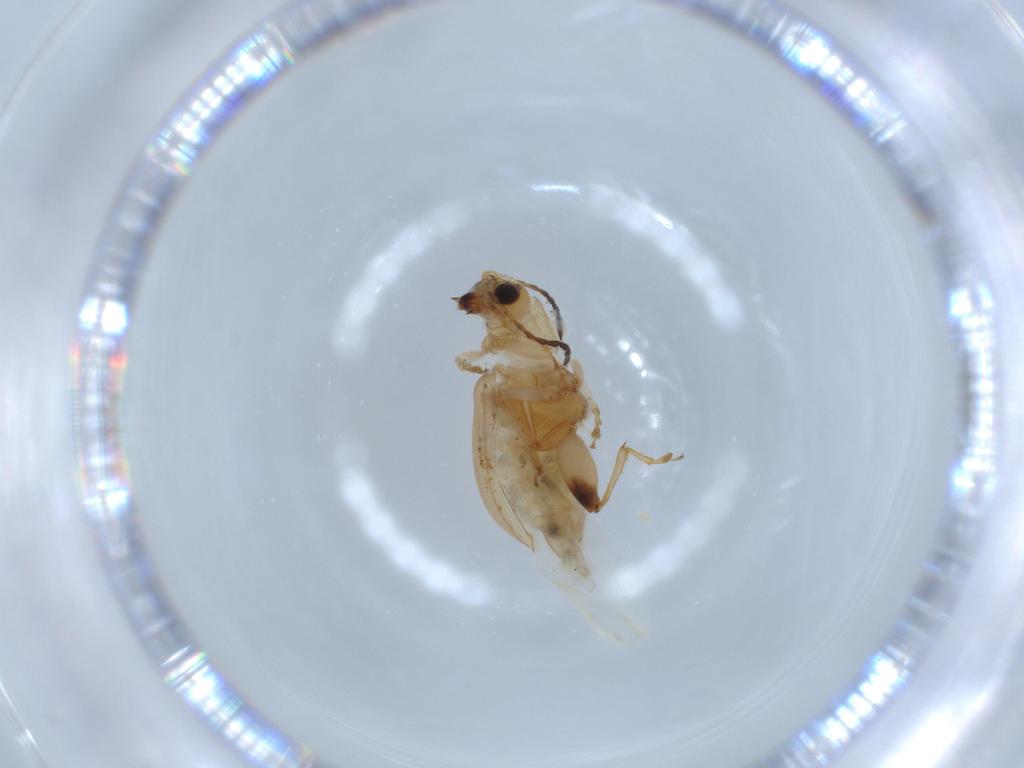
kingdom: Animalia
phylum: Arthropoda
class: Insecta
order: Coleoptera
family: Chrysomelidae
